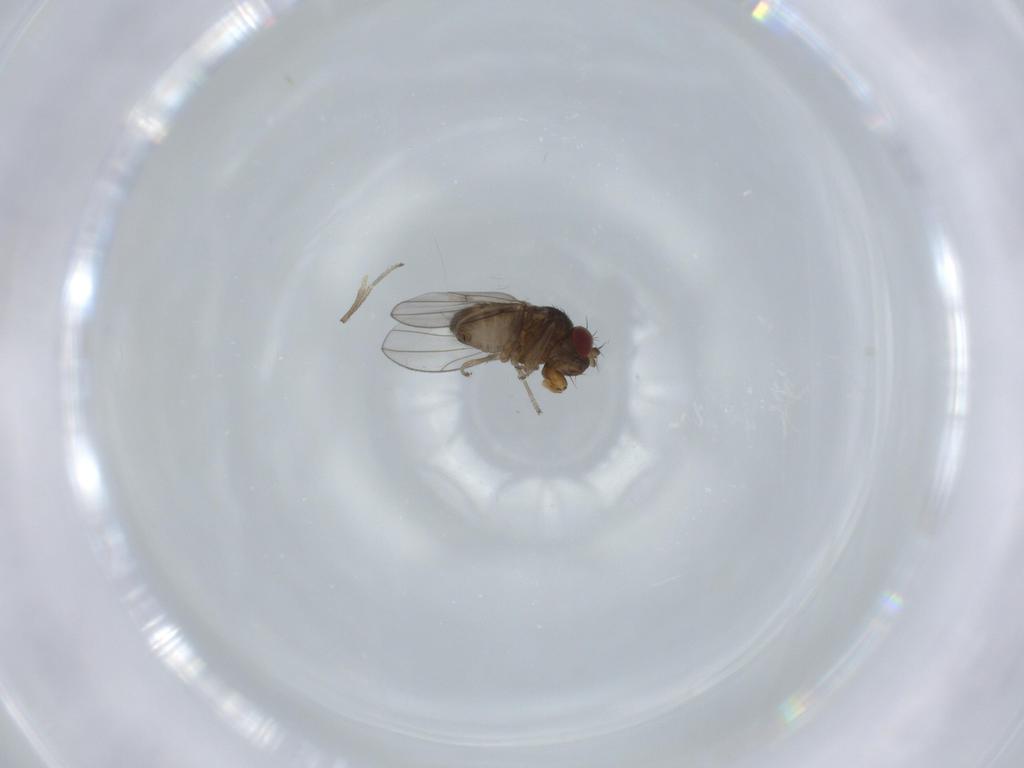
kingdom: Animalia
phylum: Arthropoda
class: Insecta
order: Diptera
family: Ephydridae
